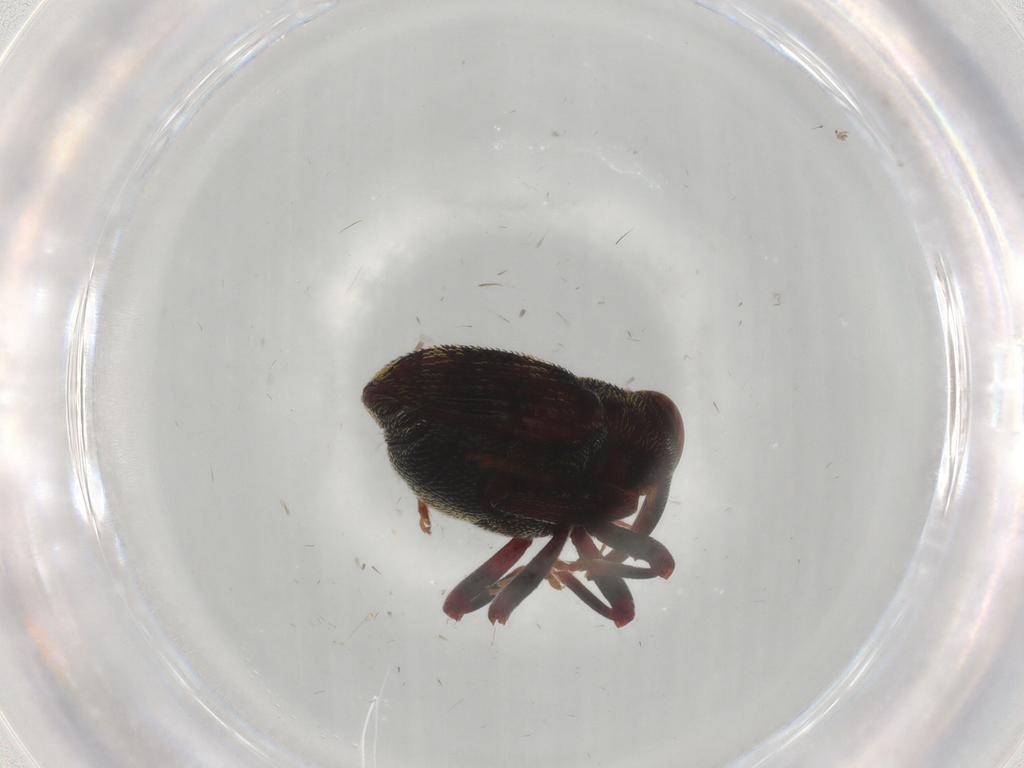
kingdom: Animalia
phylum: Arthropoda
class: Insecta
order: Coleoptera
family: Curculionidae
